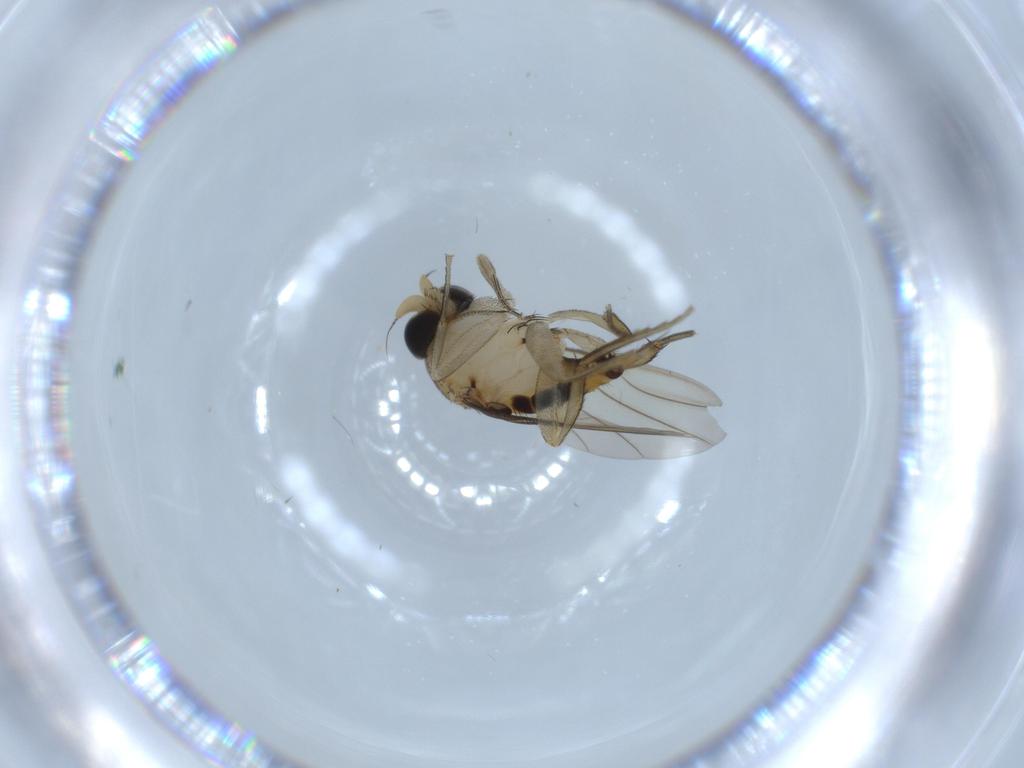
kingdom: Animalia
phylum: Arthropoda
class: Insecta
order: Diptera
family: Phoridae
